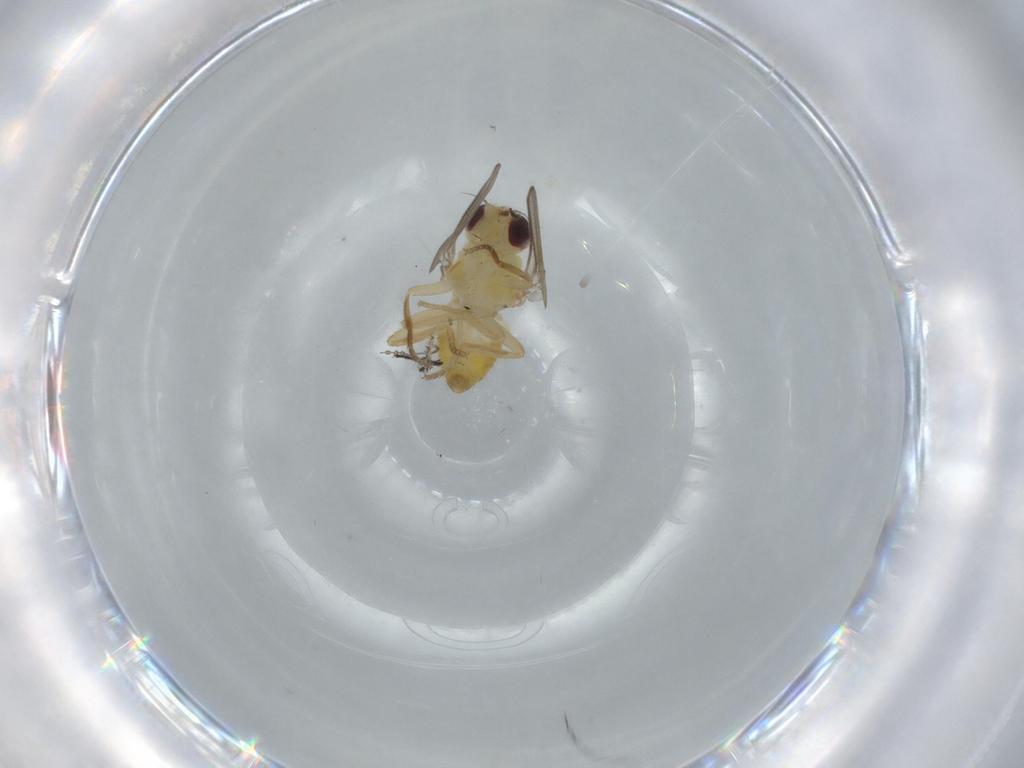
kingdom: Animalia
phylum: Arthropoda
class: Insecta
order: Diptera
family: Chloropidae
